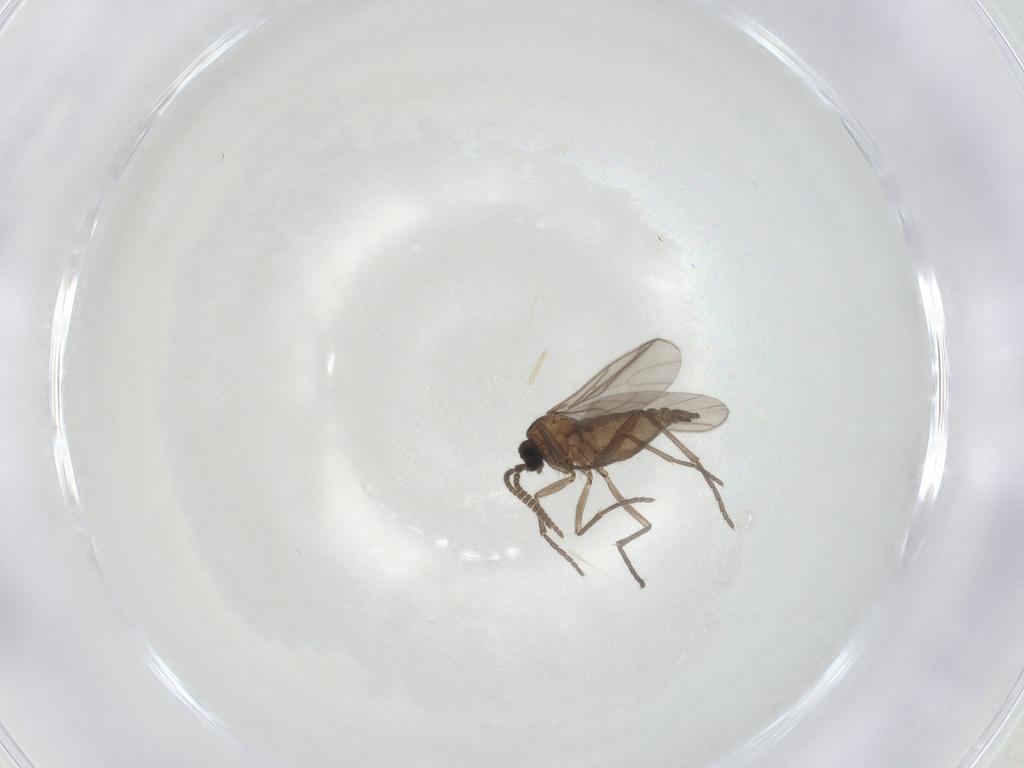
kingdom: Animalia
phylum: Arthropoda
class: Insecta
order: Diptera
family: Sciaridae
